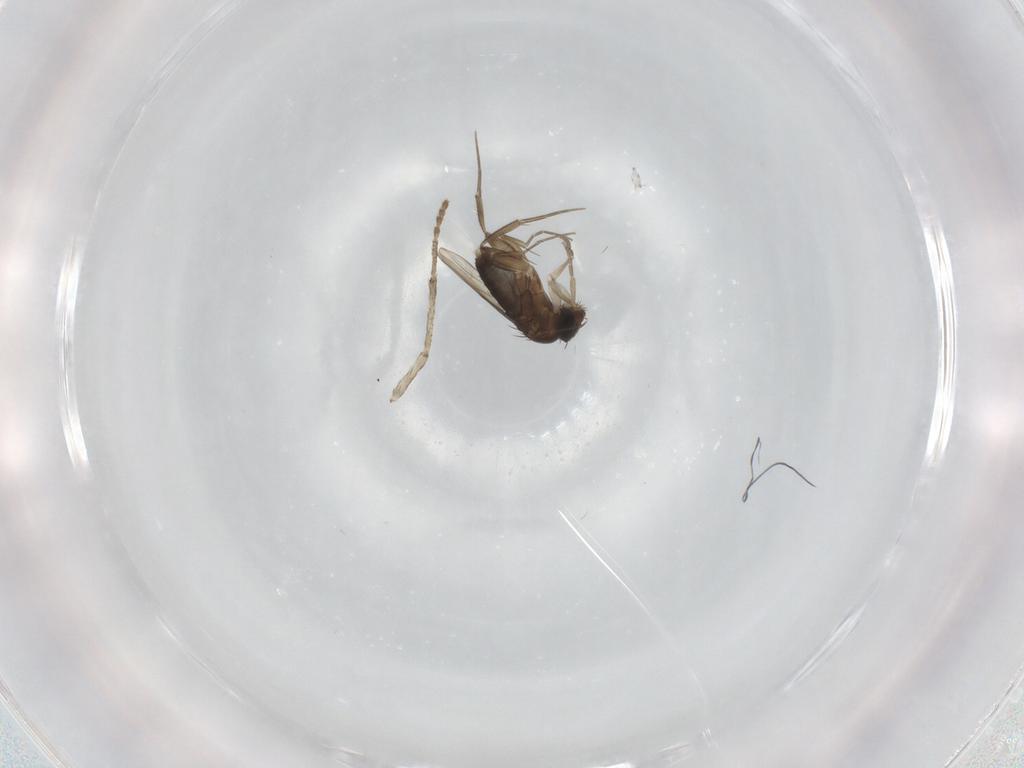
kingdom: Animalia
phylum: Arthropoda
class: Insecta
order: Diptera
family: Phoridae
